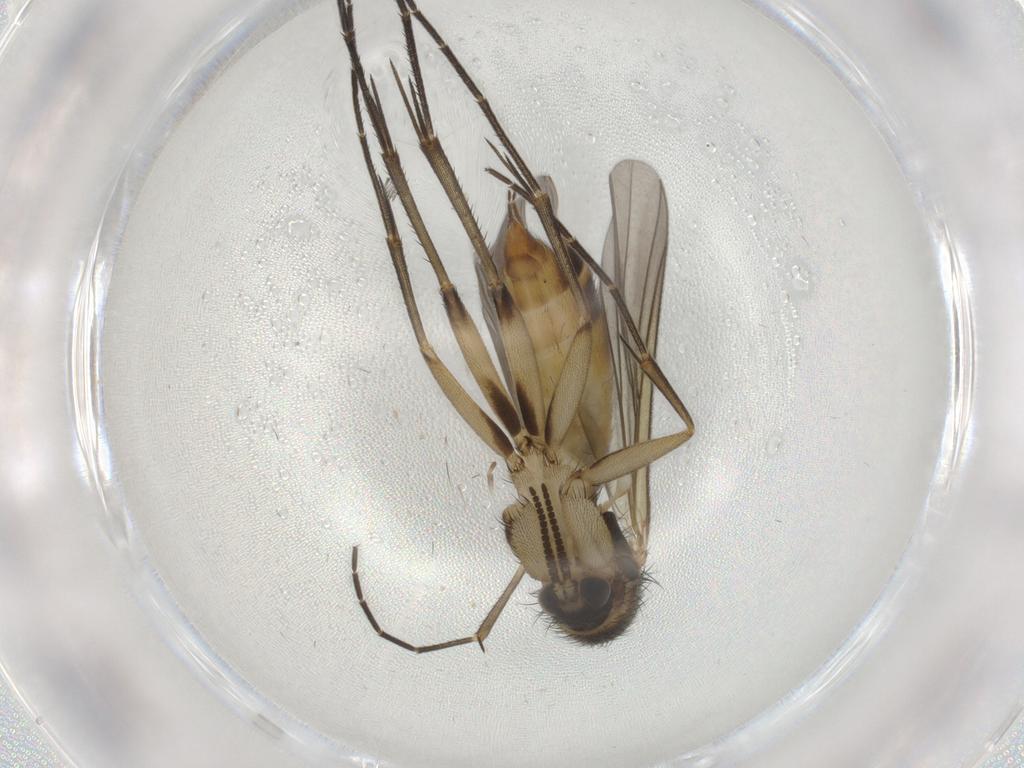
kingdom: Animalia
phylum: Arthropoda
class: Insecta
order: Diptera
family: Mycetophilidae
